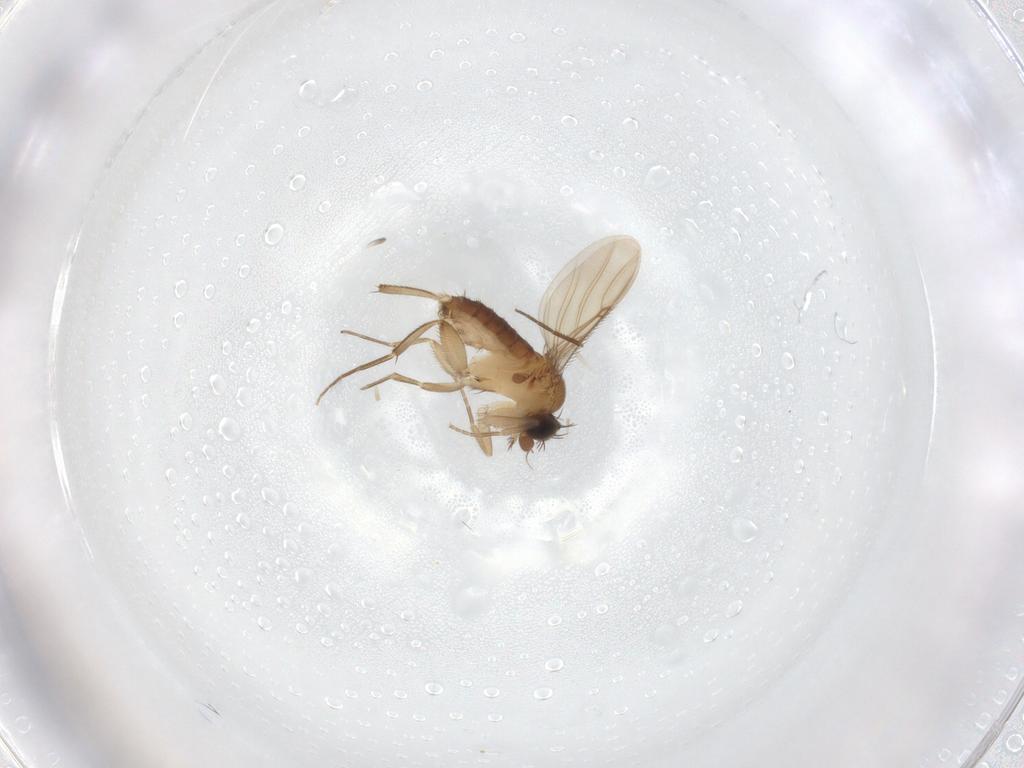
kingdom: Animalia
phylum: Arthropoda
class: Insecta
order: Diptera
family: Phoridae
